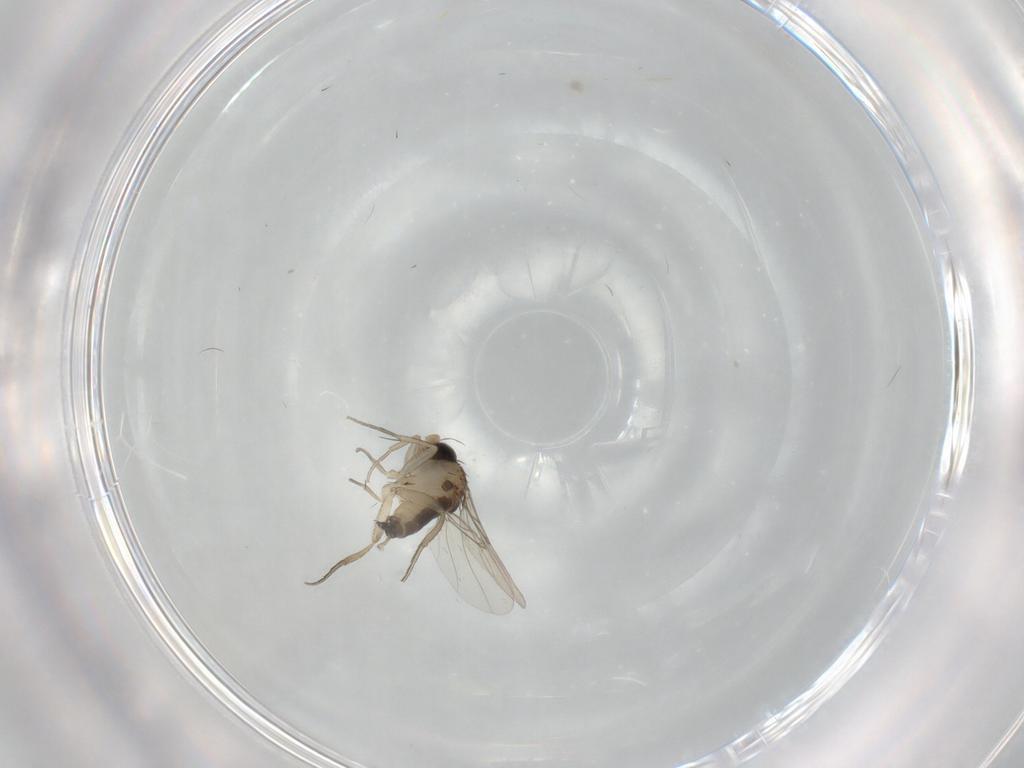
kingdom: Animalia
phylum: Arthropoda
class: Insecta
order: Diptera
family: Phoridae
